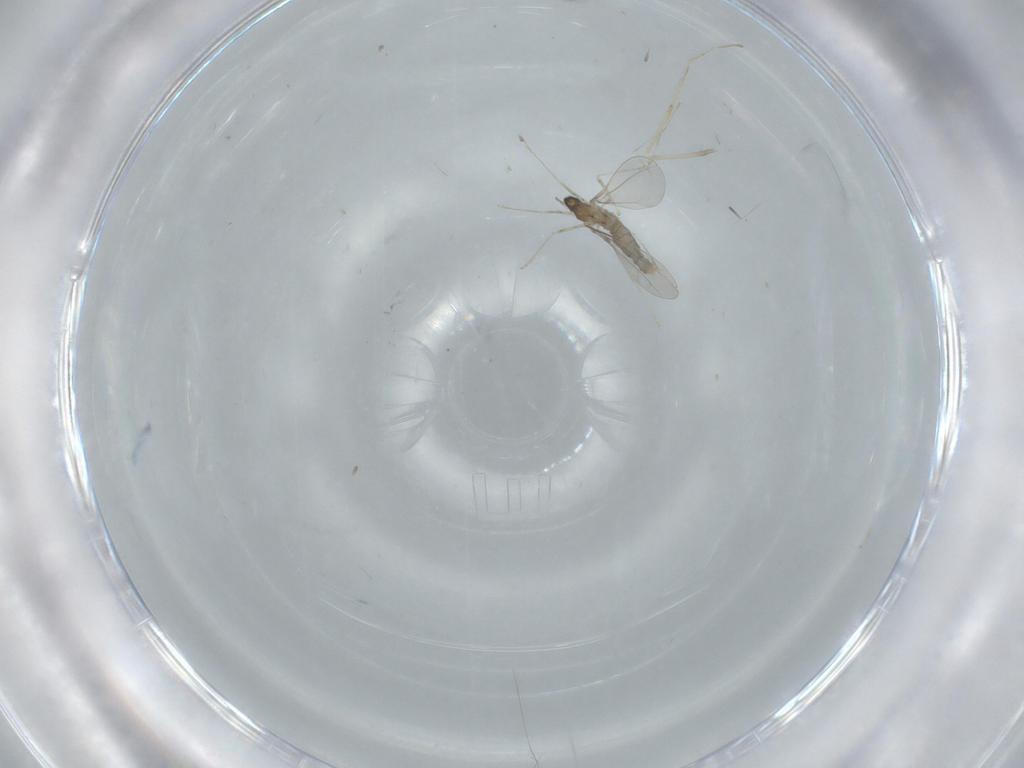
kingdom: Animalia
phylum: Arthropoda
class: Insecta
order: Diptera
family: Cecidomyiidae
